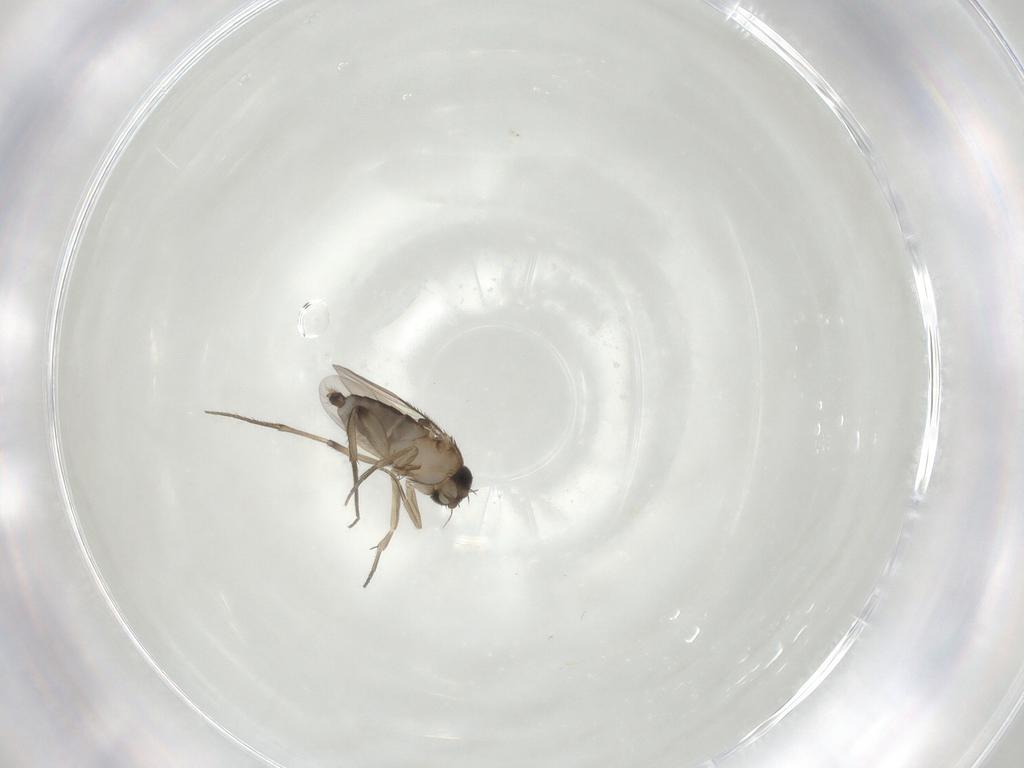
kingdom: Animalia
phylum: Arthropoda
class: Insecta
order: Diptera
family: Phoridae
